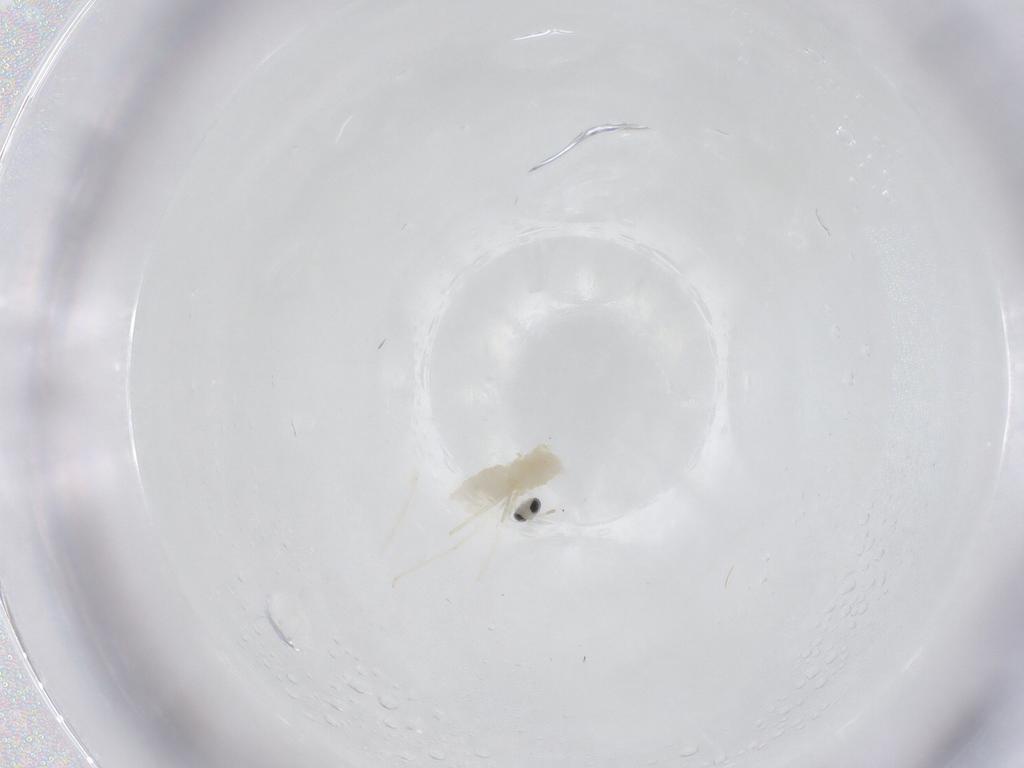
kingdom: Animalia
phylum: Arthropoda
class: Insecta
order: Diptera
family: Cecidomyiidae
